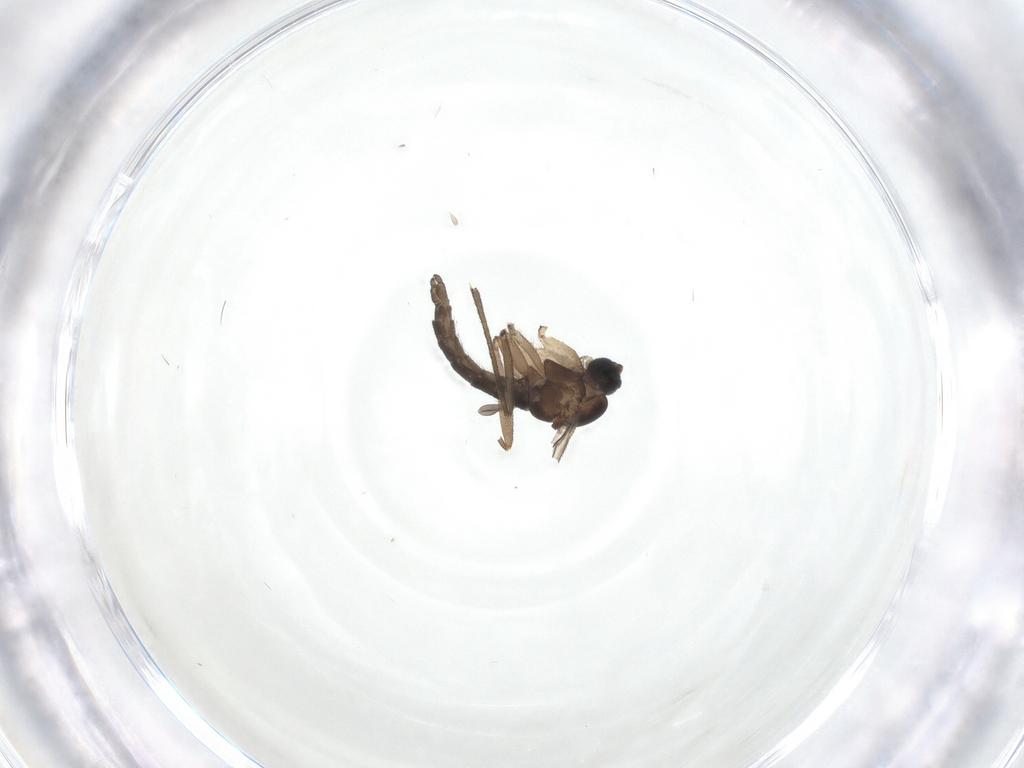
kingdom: Animalia
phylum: Arthropoda
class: Insecta
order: Diptera
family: Sciaridae
